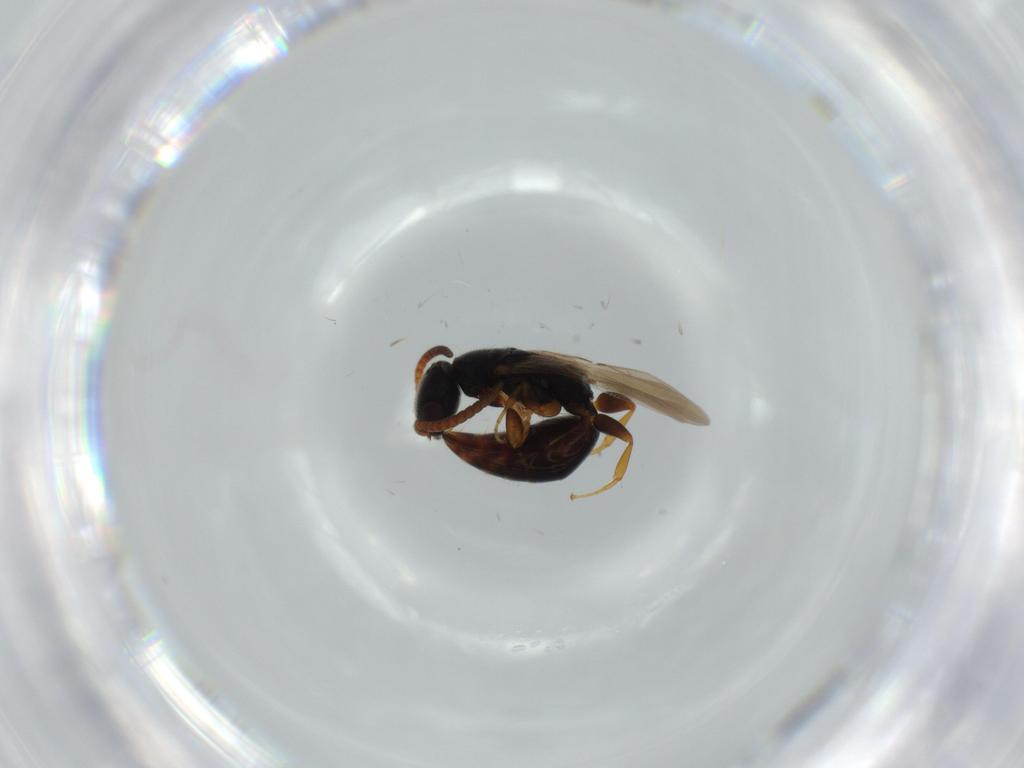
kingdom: Animalia
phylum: Arthropoda
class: Insecta
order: Hymenoptera
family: Bethylidae
